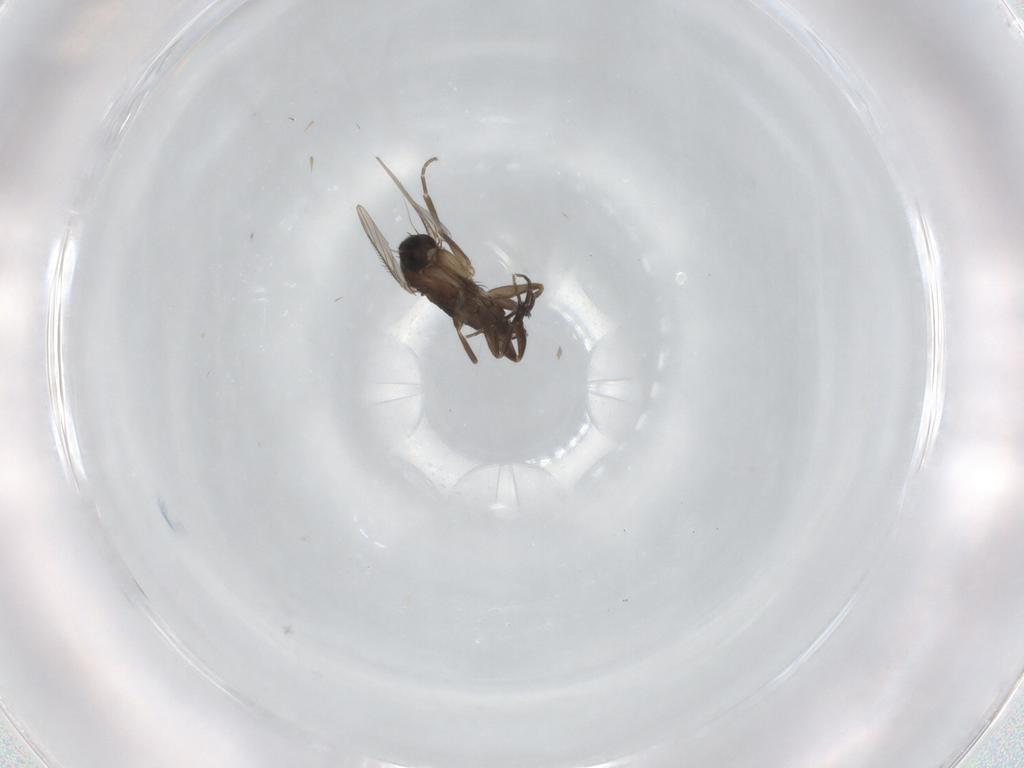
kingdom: Animalia
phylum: Arthropoda
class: Insecta
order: Diptera
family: Phoridae
